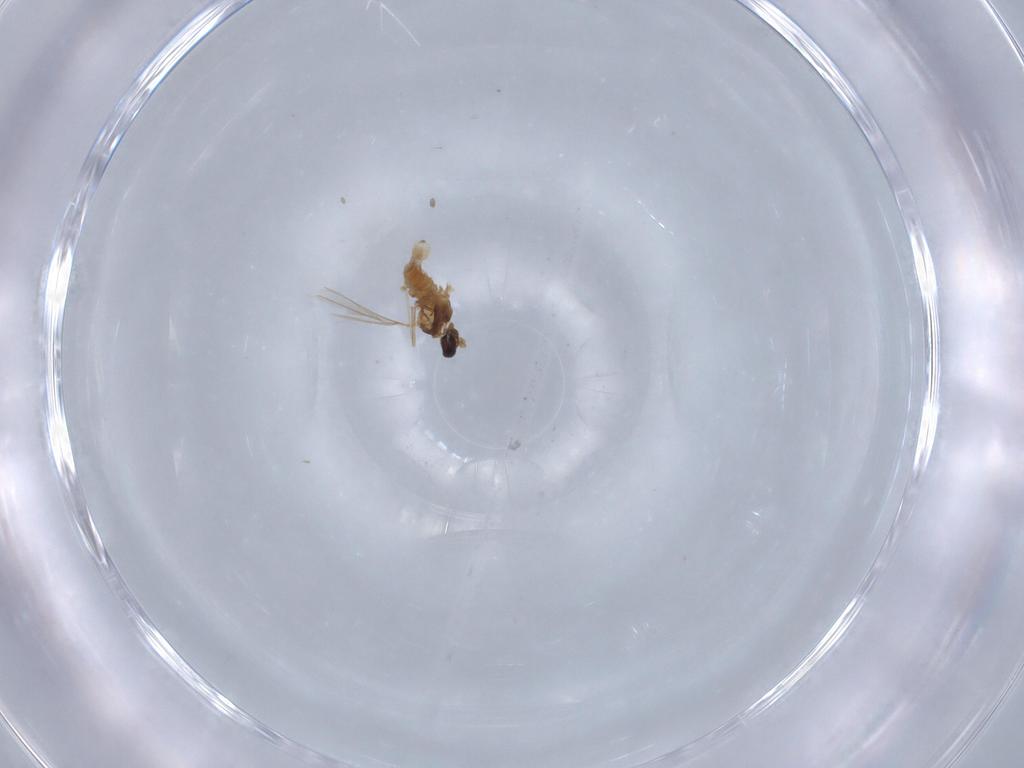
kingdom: Animalia
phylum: Arthropoda
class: Insecta
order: Diptera
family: Cecidomyiidae
